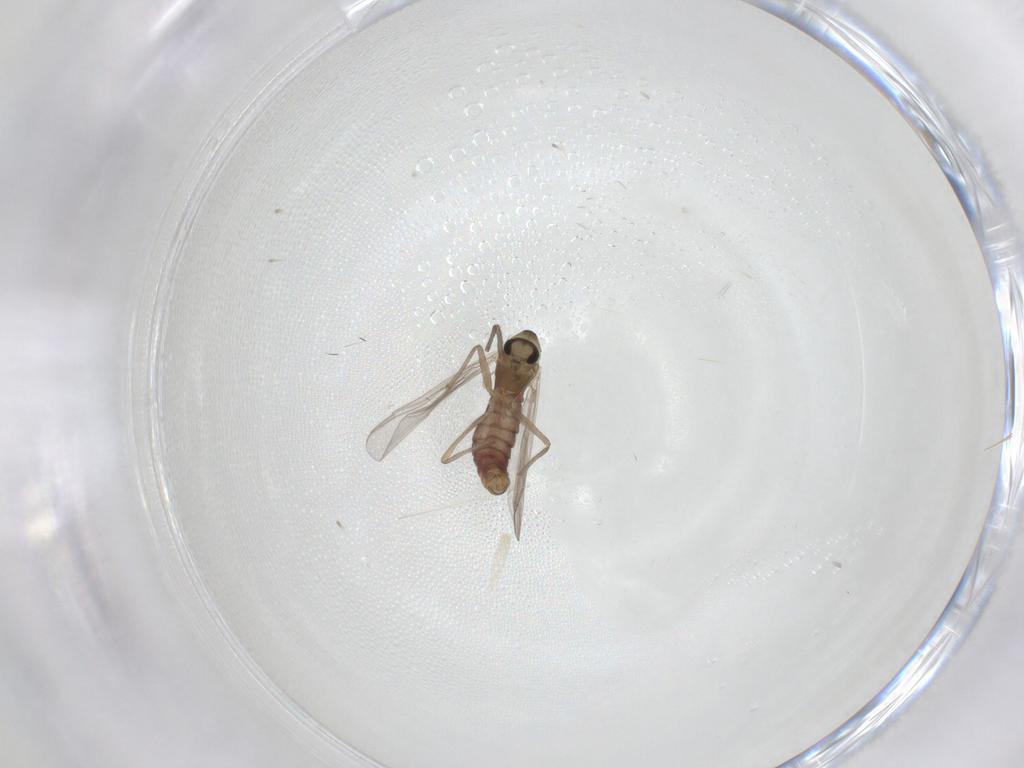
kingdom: Animalia
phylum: Arthropoda
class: Insecta
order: Diptera
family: Chironomidae
